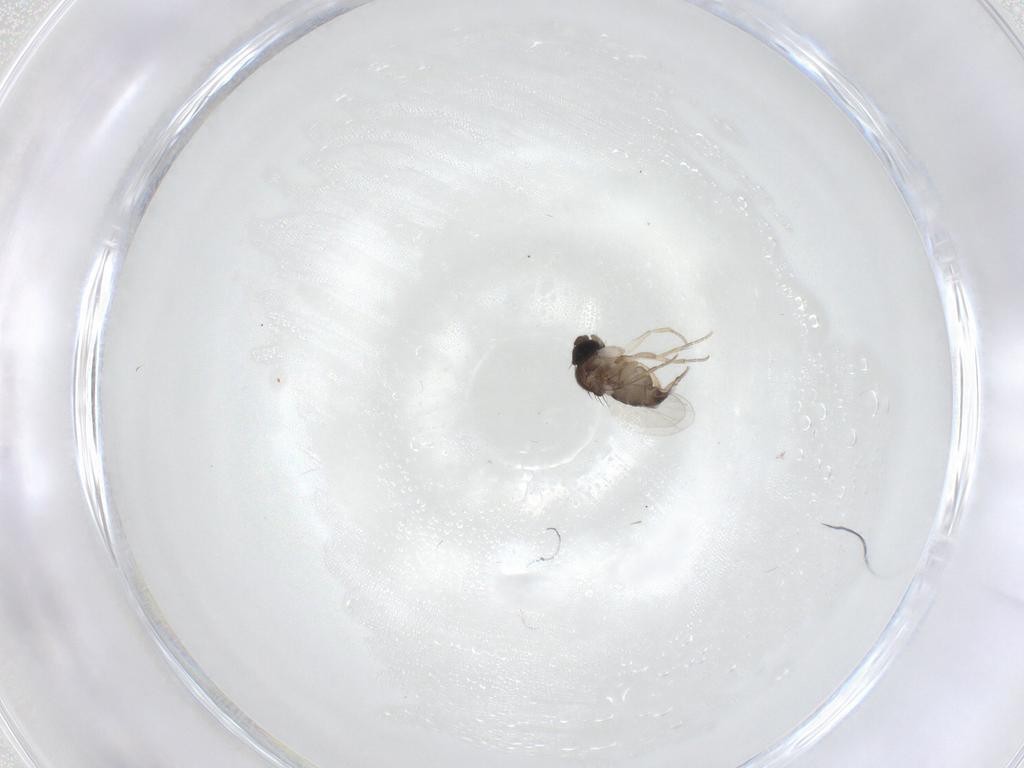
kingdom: Animalia
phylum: Arthropoda
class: Insecta
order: Diptera
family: Phoridae
